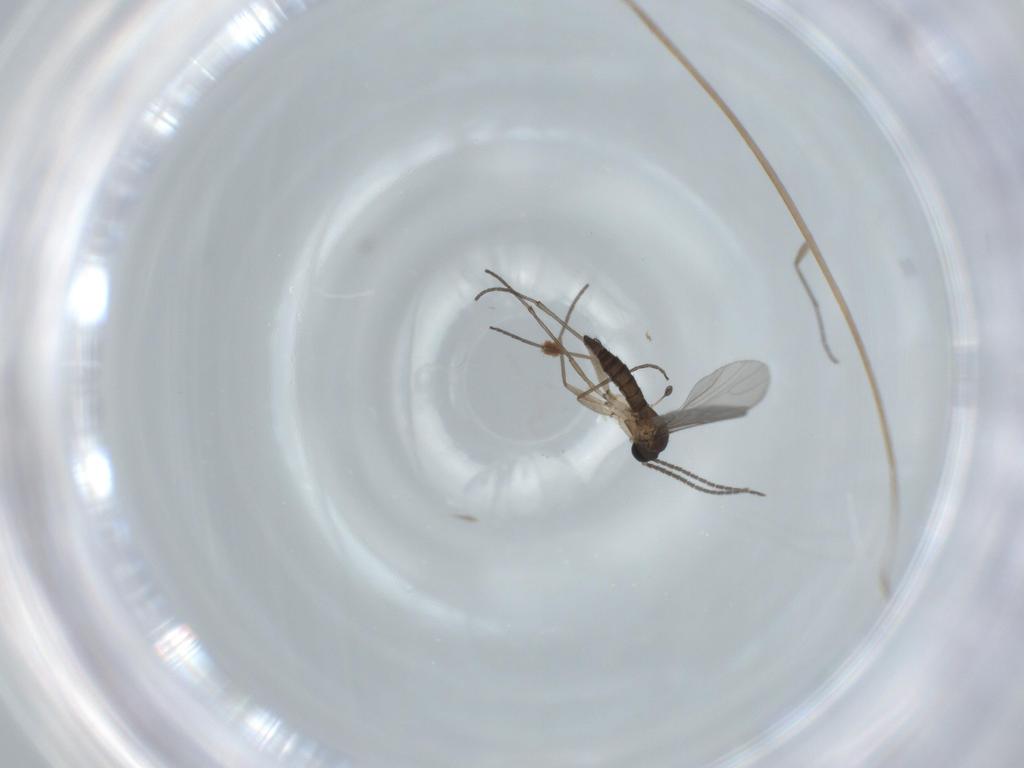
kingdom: Animalia
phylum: Arthropoda
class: Insecta
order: Diptera
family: Sciaridae
